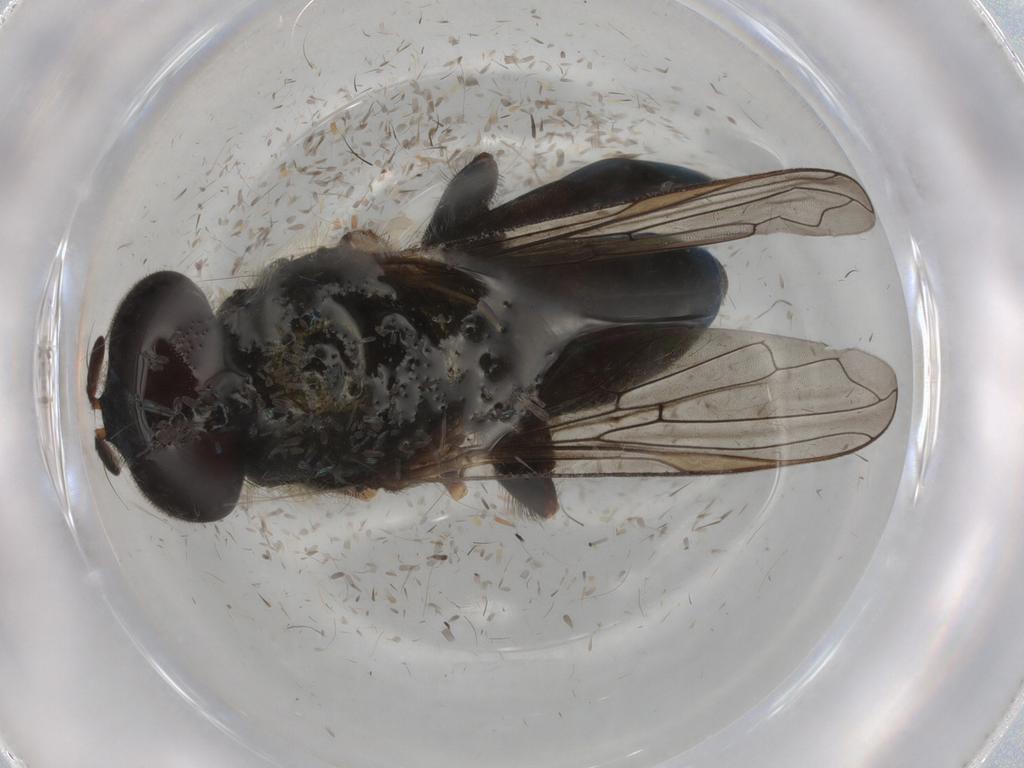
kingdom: Animalia
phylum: Arthropoda
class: Insecta
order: Diptera
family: Syrphidae
